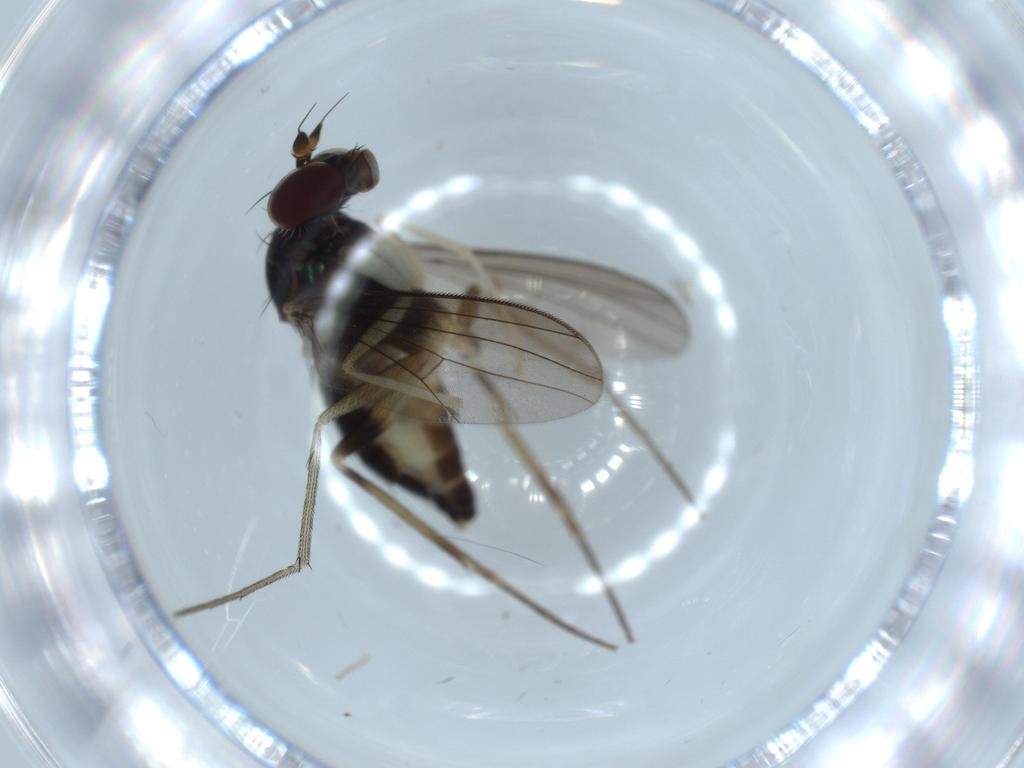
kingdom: Animalia
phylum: Arthropoda
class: Insecta
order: Diptera
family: Dolichopodidae
